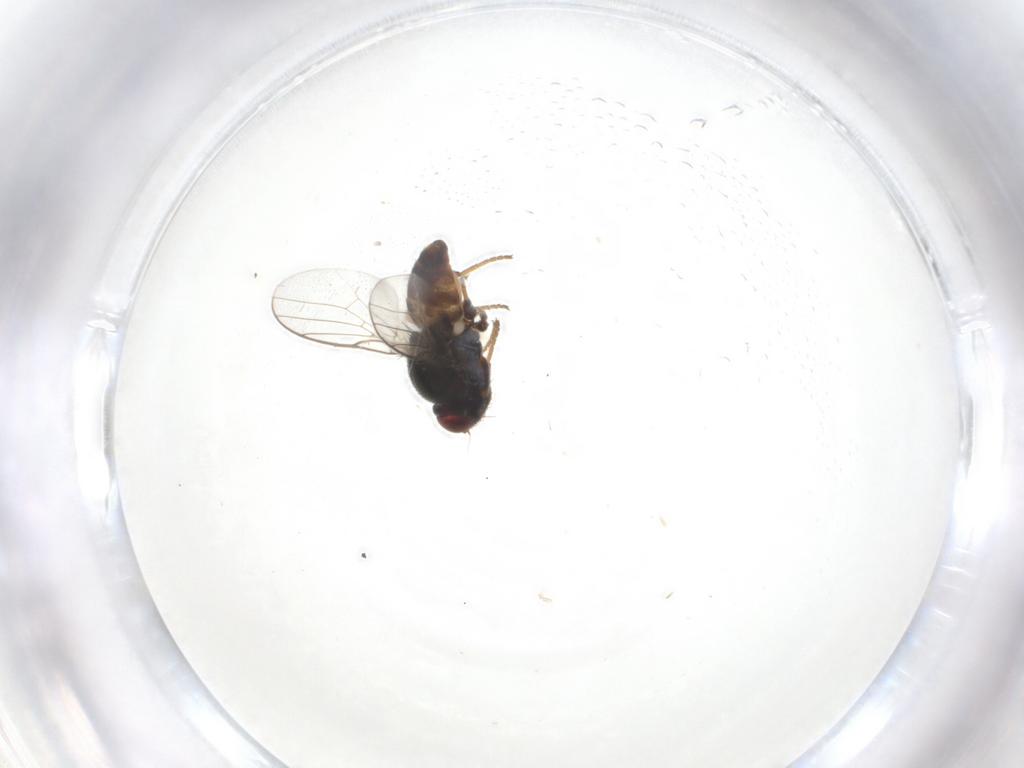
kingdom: Animalia
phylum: Arthropoda
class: Insecta
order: Diptera
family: Chloropidae
